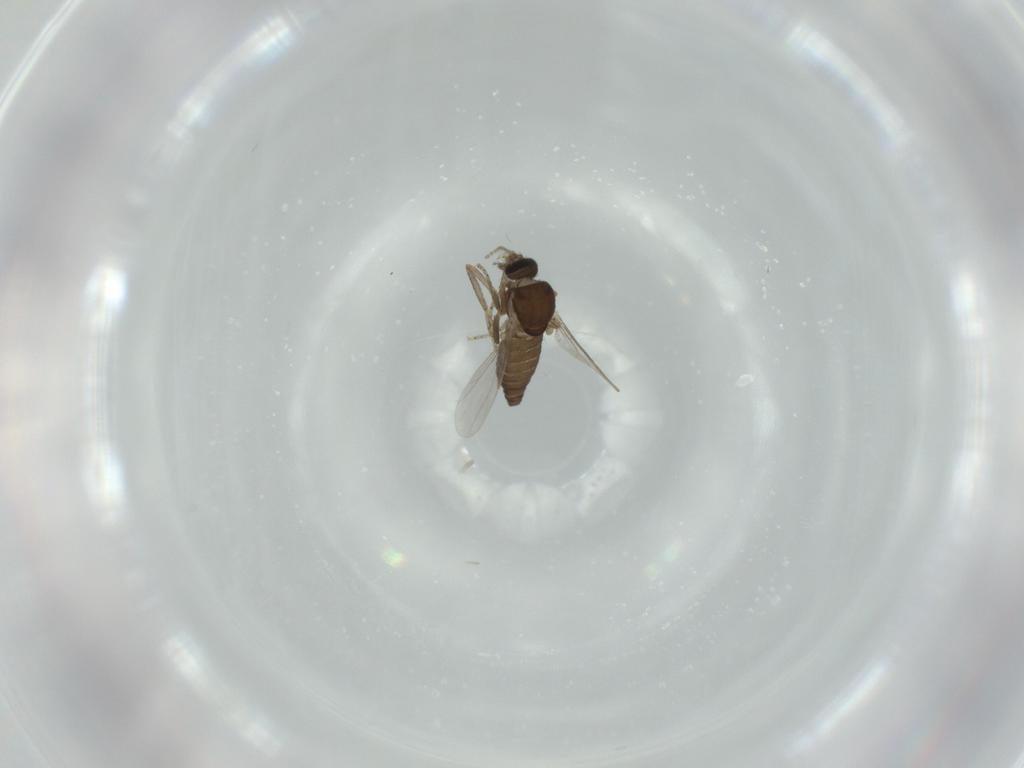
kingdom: Animalia
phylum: Arthropoda
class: Insecta
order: Diptera
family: Ceratopogonidae
